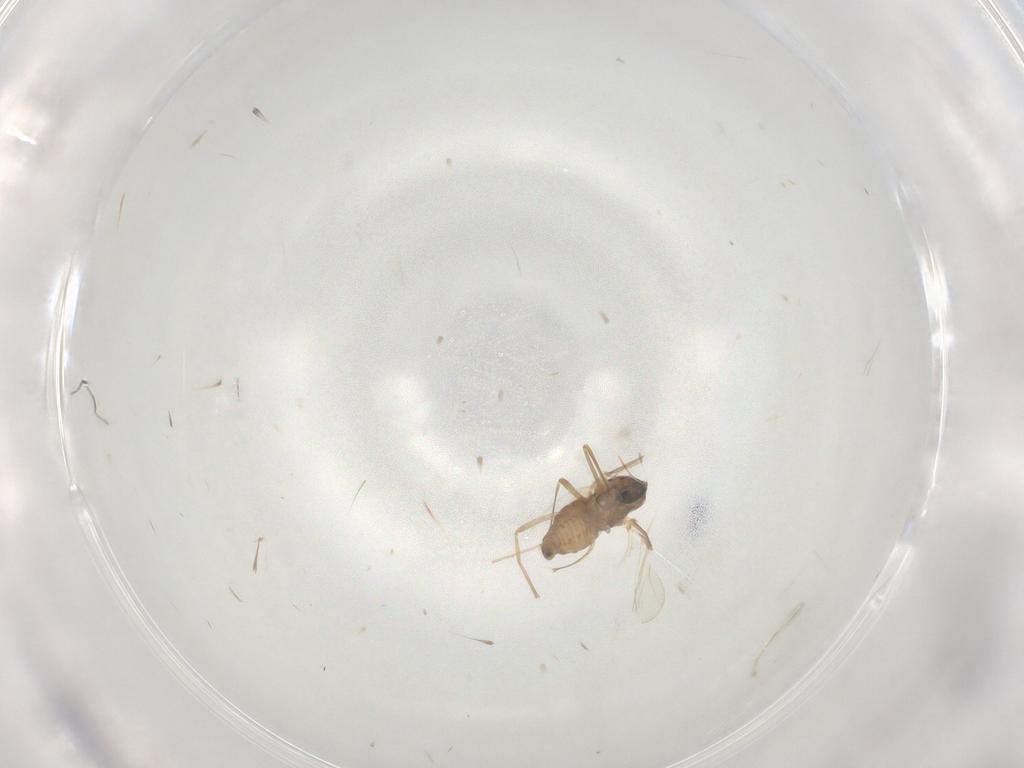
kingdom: Animalia
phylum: Arthropoda
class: Insecta
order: Diptera
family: Cecidomyiidae
